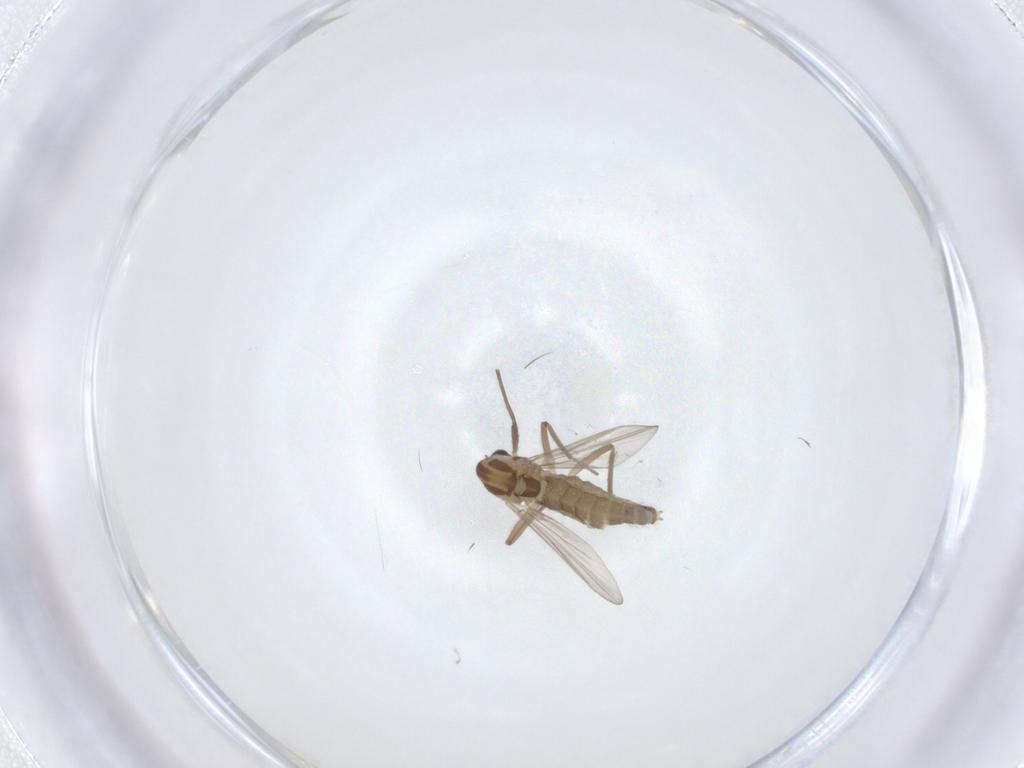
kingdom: Animalia
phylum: Arthropoda
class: Insecta
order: Diptera
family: Chironomidae
